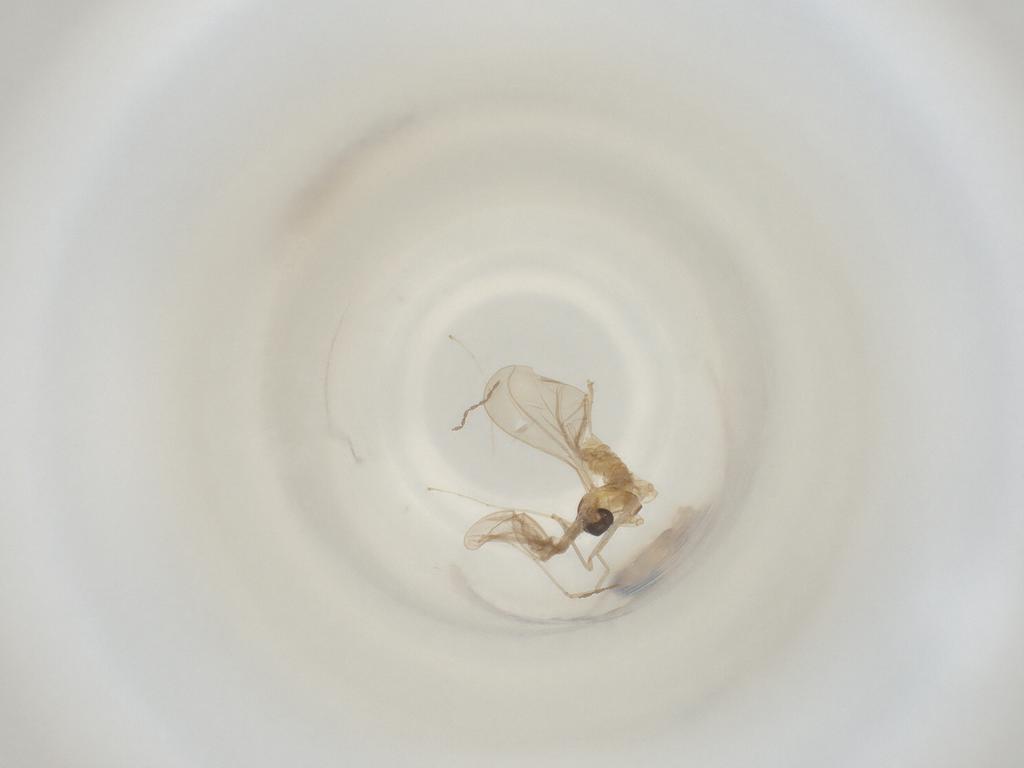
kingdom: Animalia
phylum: Arthropoda
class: Insecta
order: Diptera
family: Cecidomyiidae
